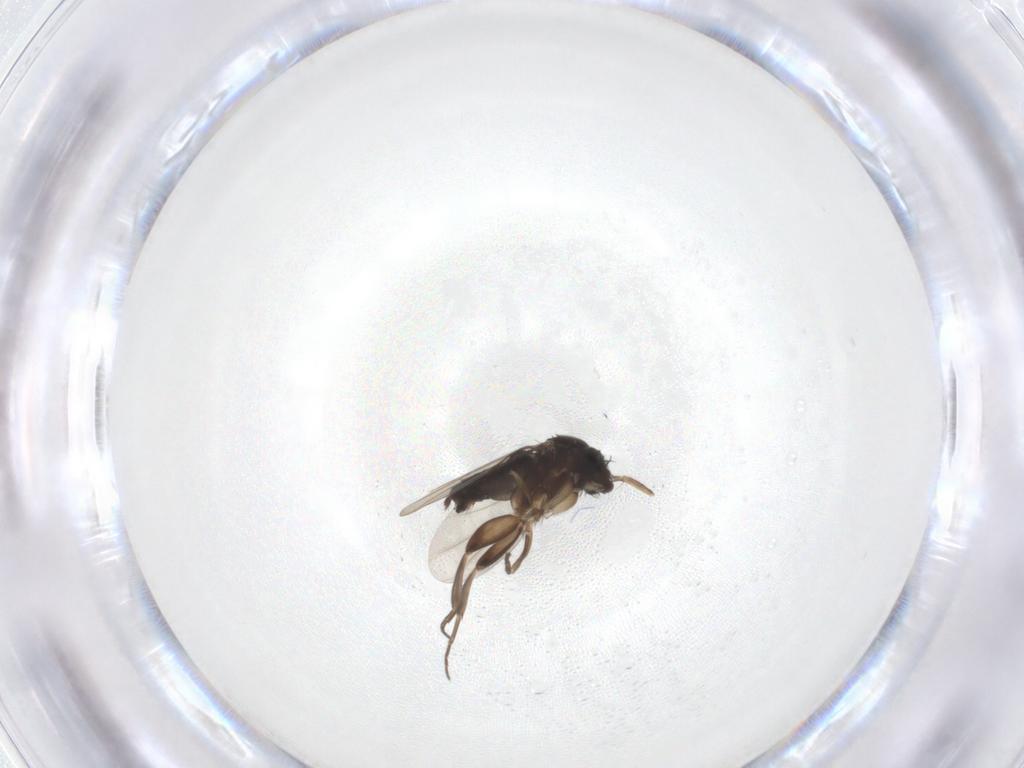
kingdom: Animalia
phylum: Arthropoda
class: Insecta
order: Diptera
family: Phoridae
